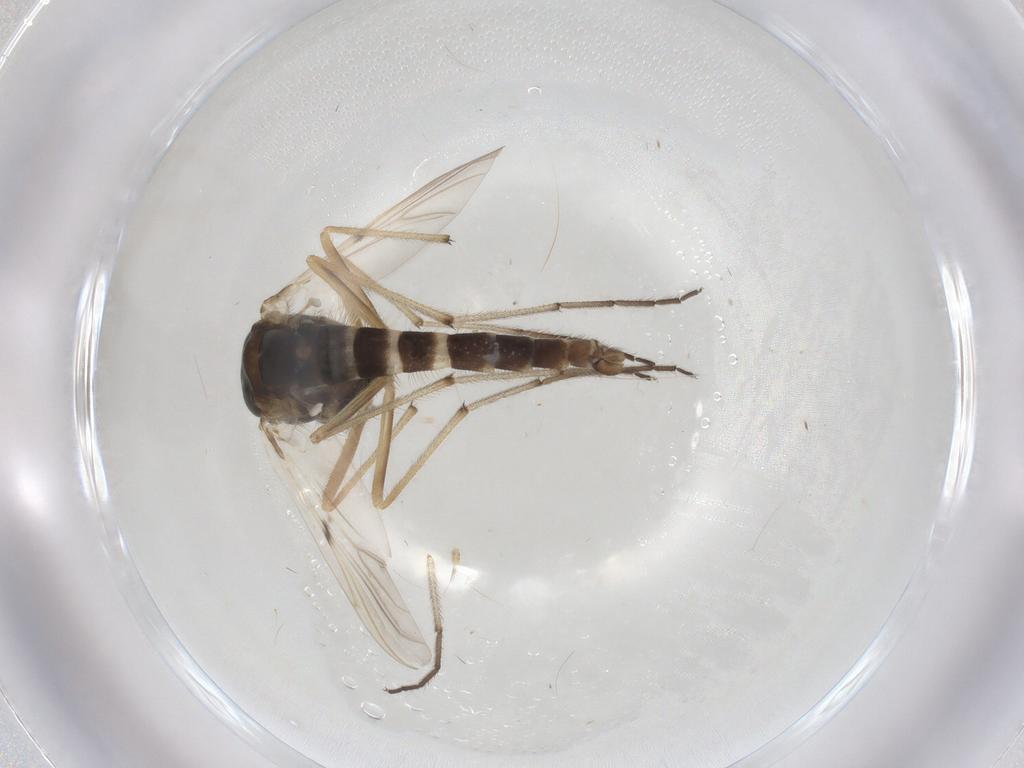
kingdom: Animalia
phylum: Arthropoda
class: Insecta
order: Diptera
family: Chironomidae
